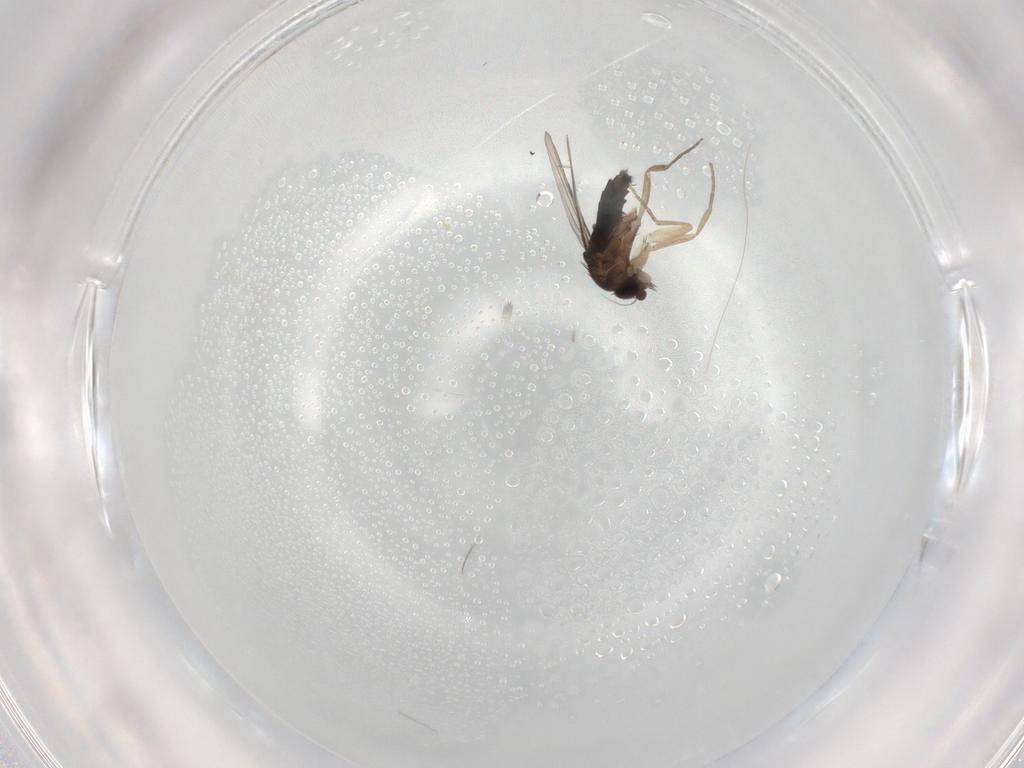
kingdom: Animalia
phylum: Arthropoda
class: Insecta
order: Diptera
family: Phoridae
